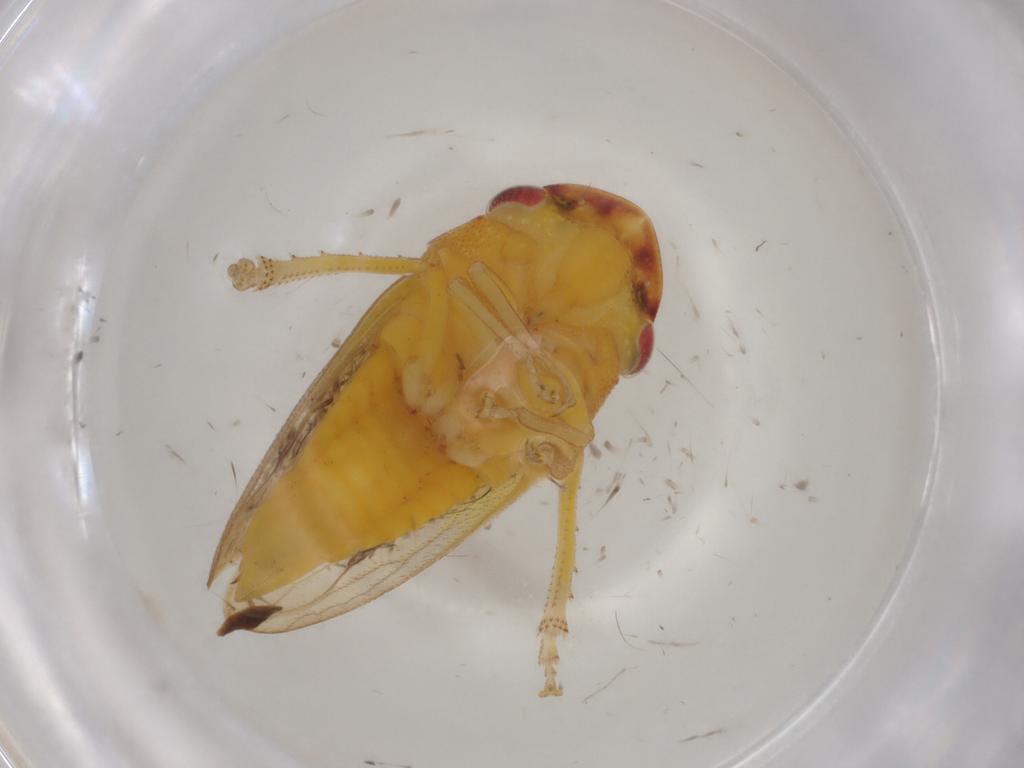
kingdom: Animalia
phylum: Arthropoda
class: Insecta
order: Hemiptera
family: Cicadellidae
